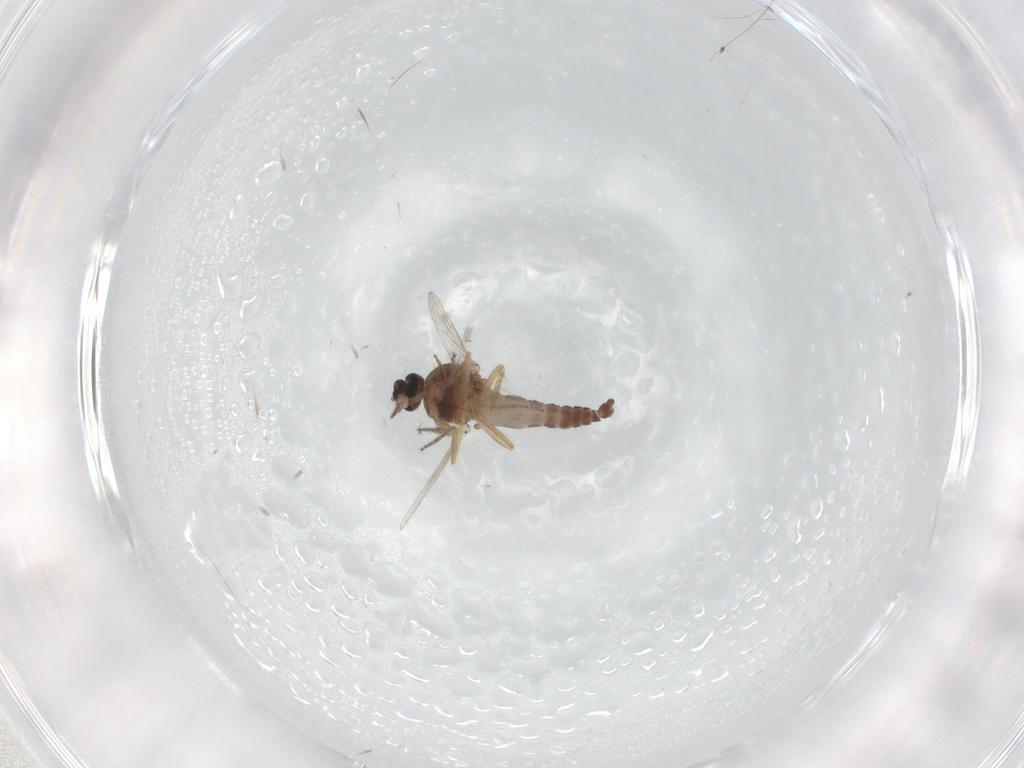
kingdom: Animalia
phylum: Arthropoda
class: Insecta
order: Diptera
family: Ceratopogonidae
